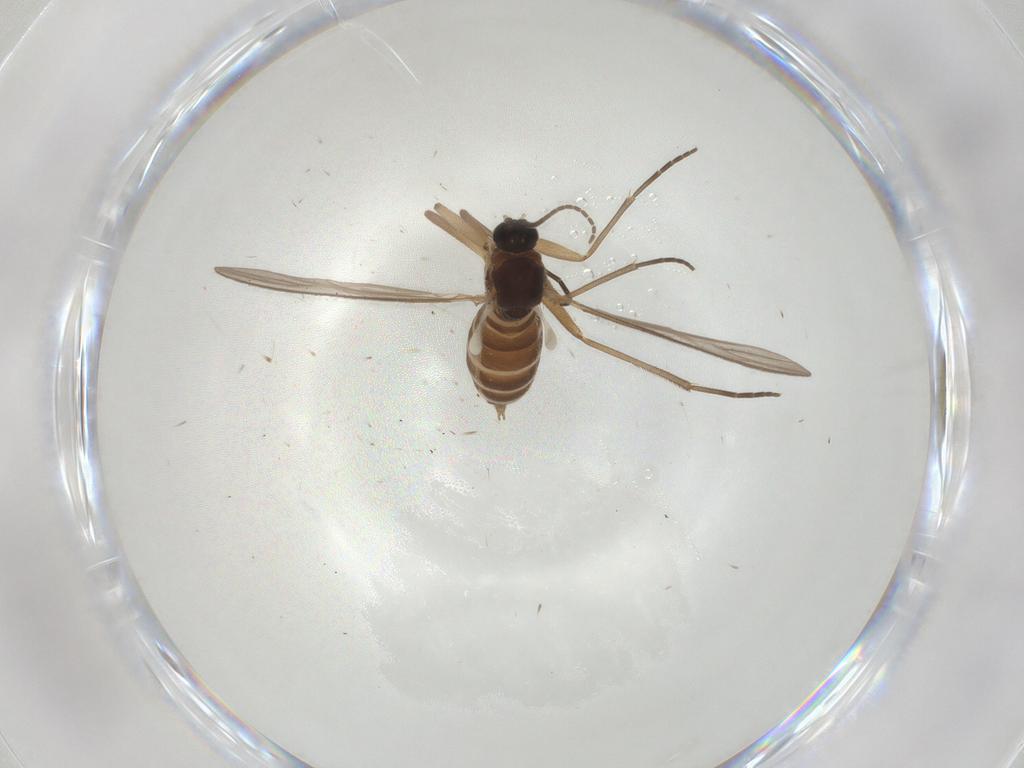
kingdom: Animalia
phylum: Arthropoda
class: Insecta
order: Diptera
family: Sciaridae
